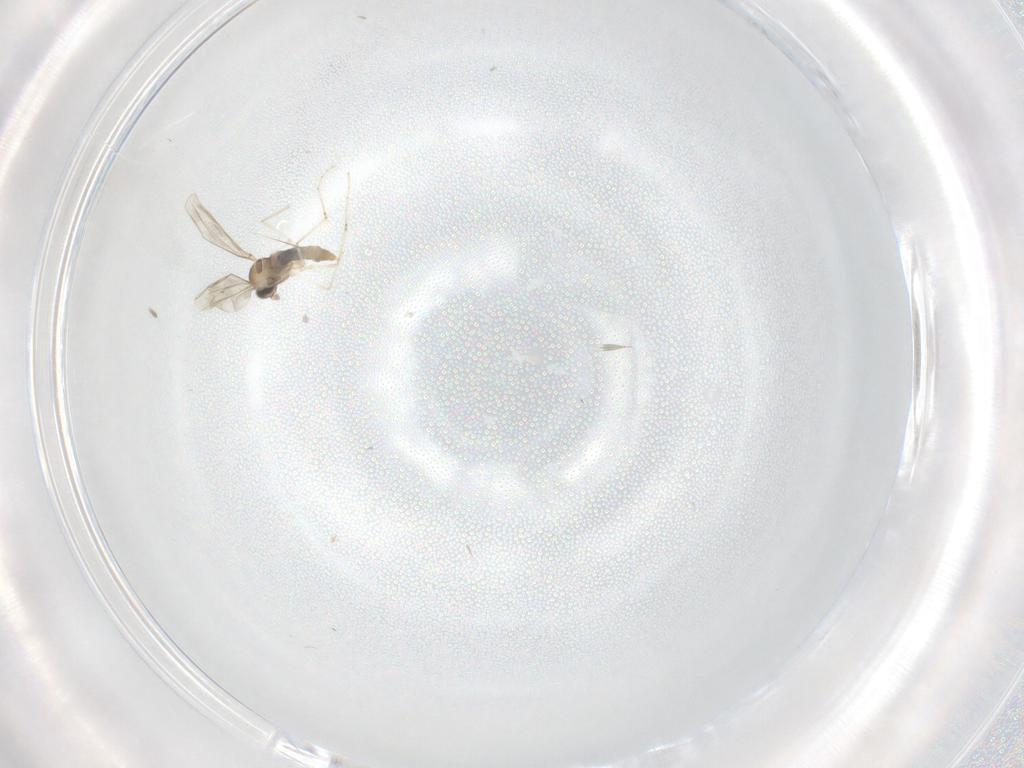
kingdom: Animalia
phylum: Arthropoda
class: Insecta
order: Diptera
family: Cecidomyiidae
